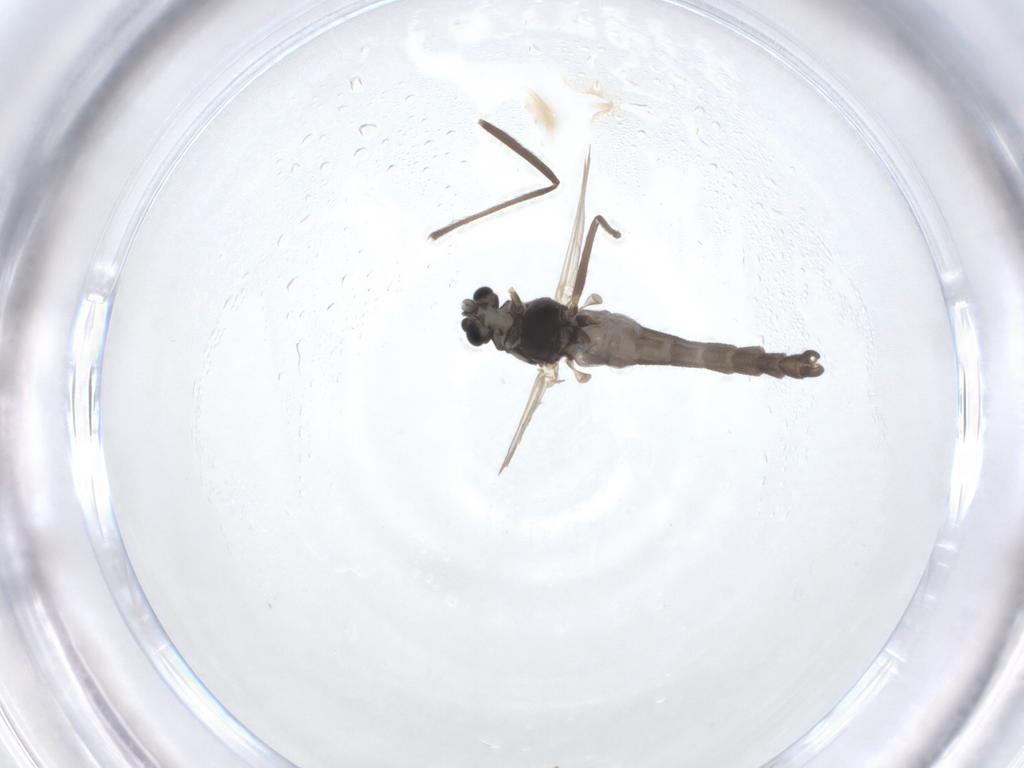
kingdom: Animalia
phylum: Arthropoda
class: Insecta
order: Diptera
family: Chironomidae
